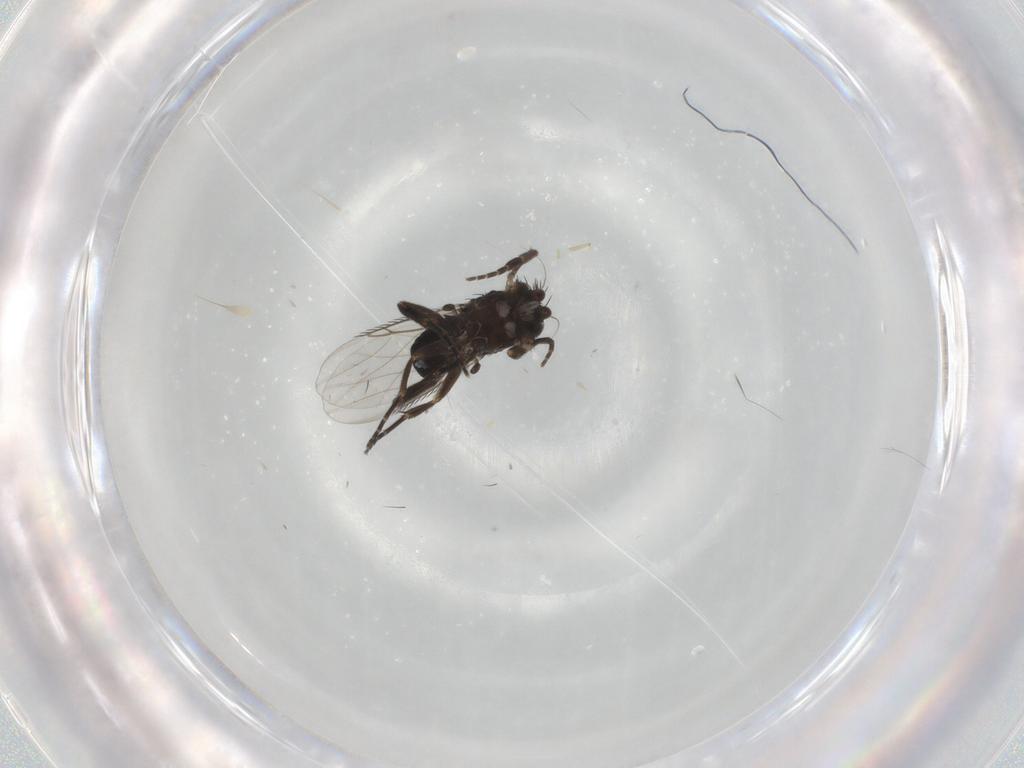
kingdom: Animalia
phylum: Arthropoda
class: Insecta
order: Diptera
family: Phoridae
